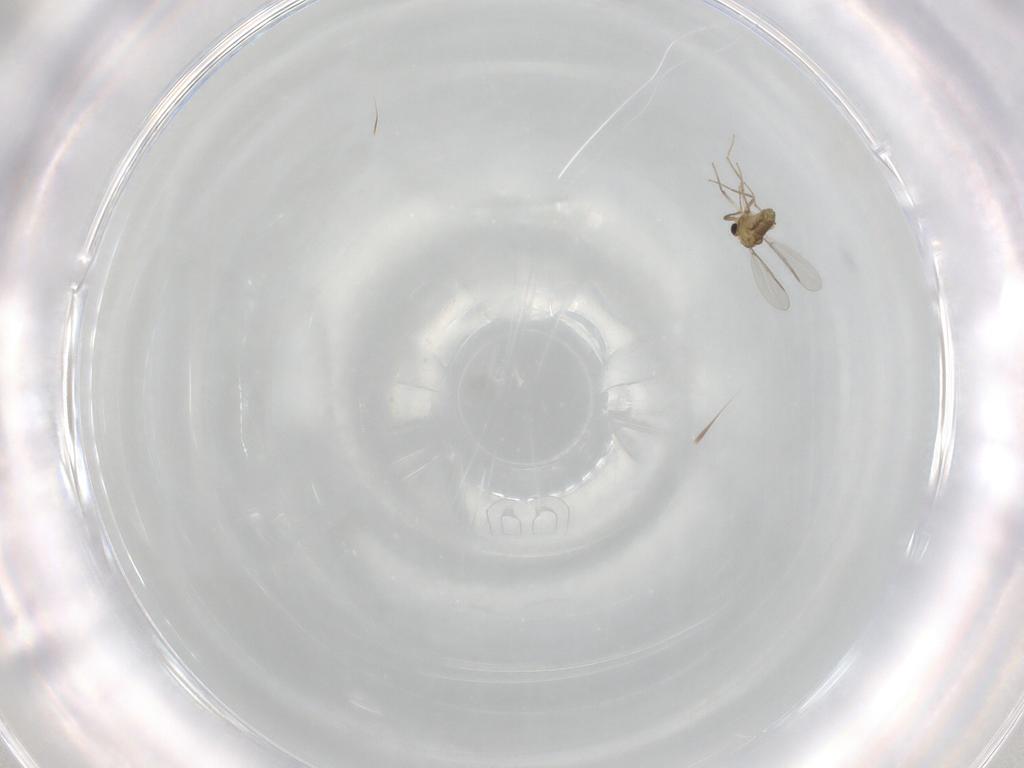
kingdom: Animalia
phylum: Arthropoda
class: Insecta
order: Diptera
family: Chironomidae
